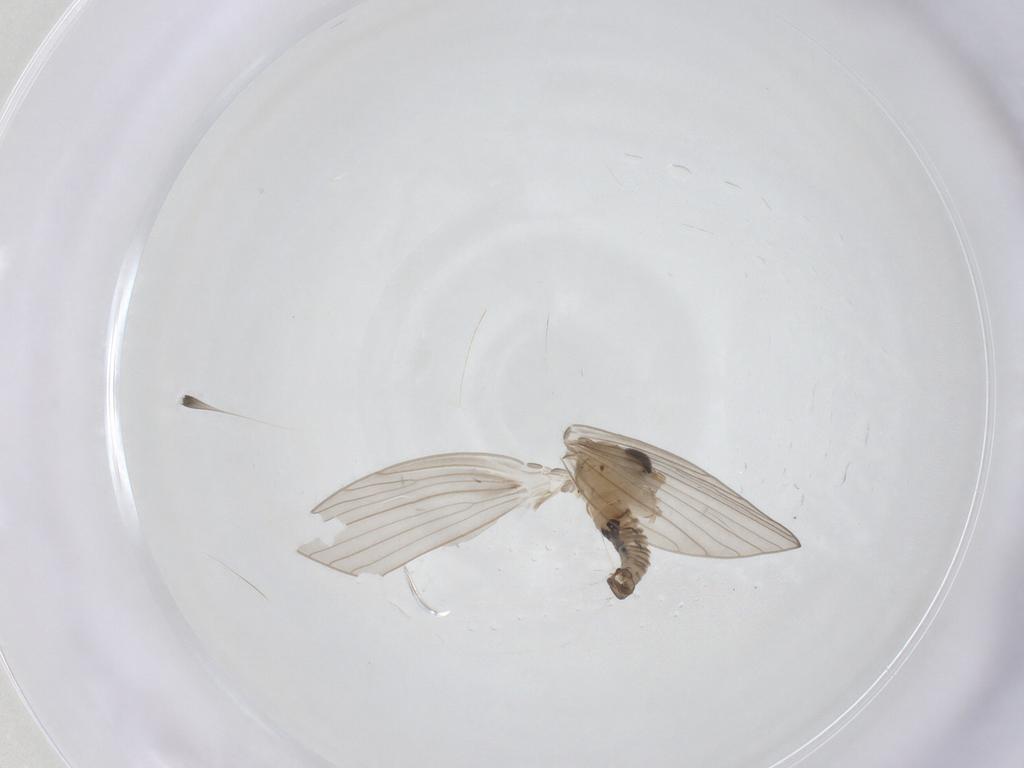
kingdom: Animalia
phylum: Arthropoda
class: Insecta
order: Diptera
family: Psychodidae
